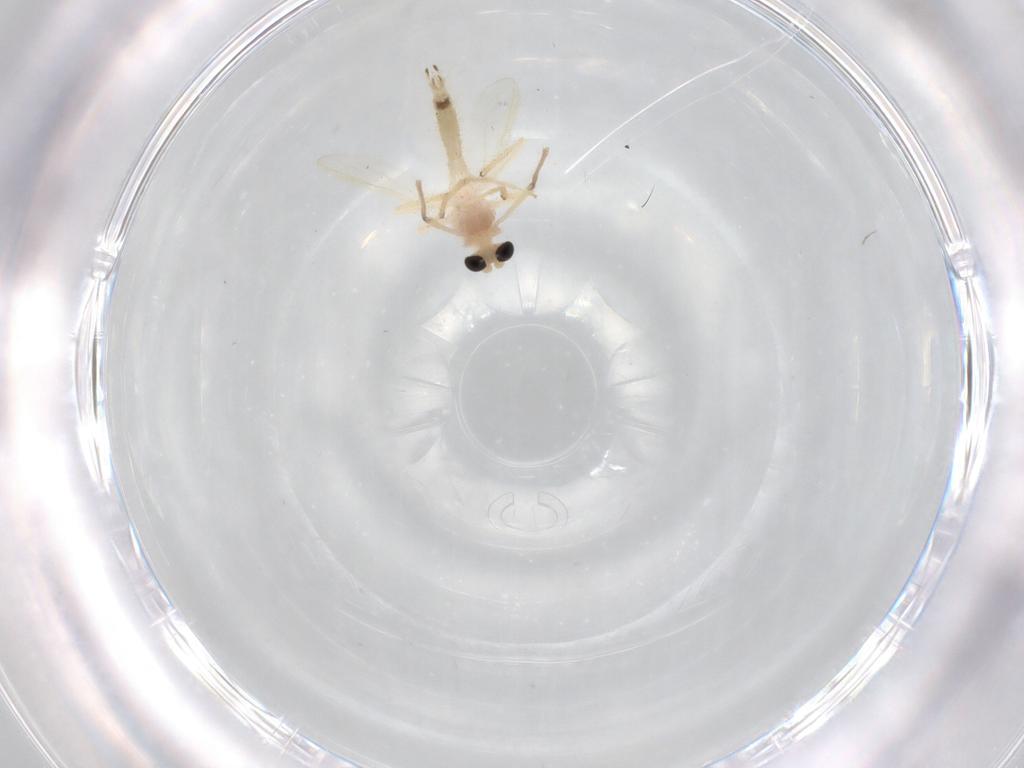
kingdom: Animalia
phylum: Arthropoda
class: Insecta
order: Diptera
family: Chironomidae
